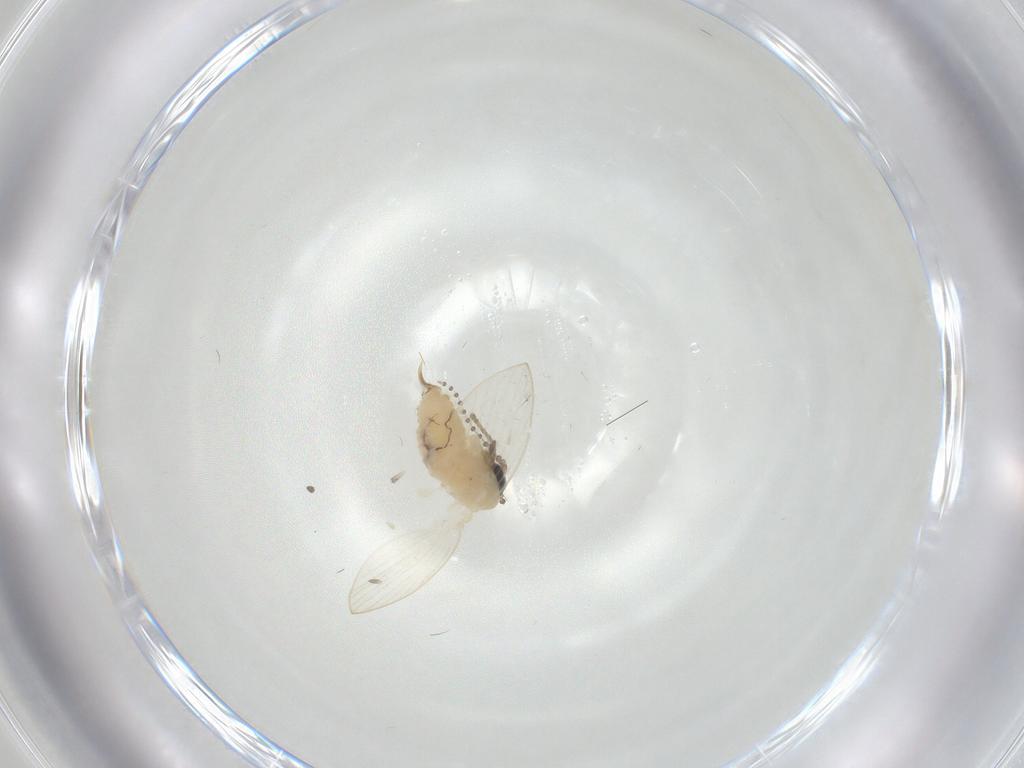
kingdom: Animalia
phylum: Arthropoda
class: Insecta
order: Diptera
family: Psychodidae
